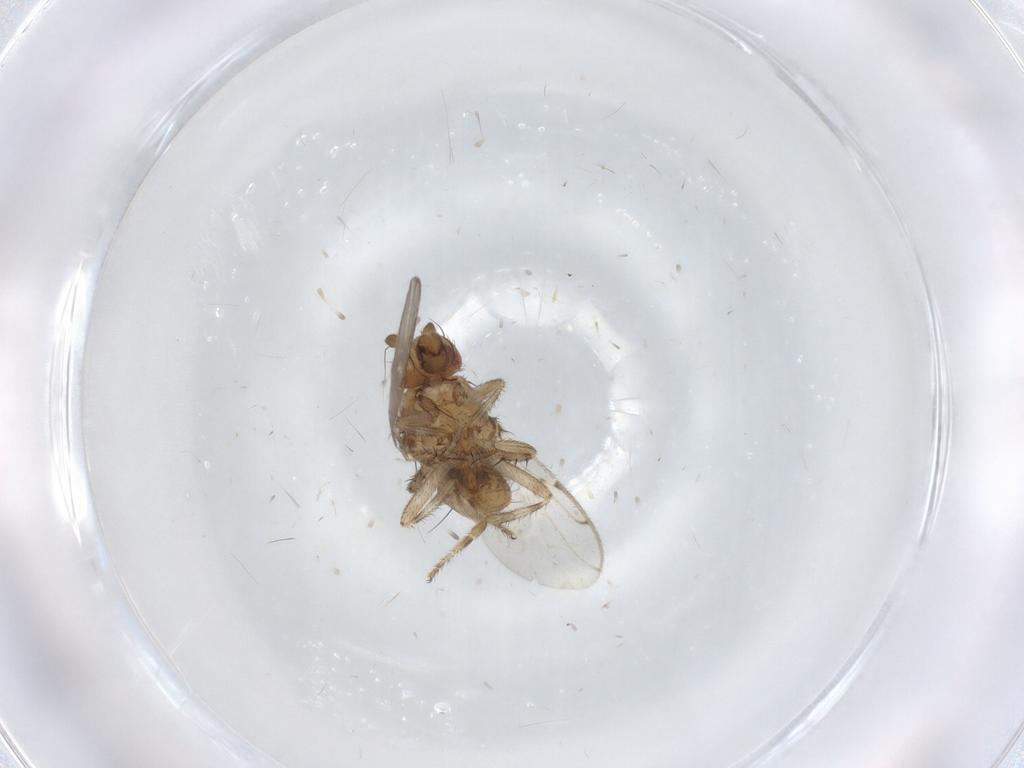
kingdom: Animalia
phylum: Arthropoda
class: Insecta
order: Diptera
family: Sphaeroceridae
